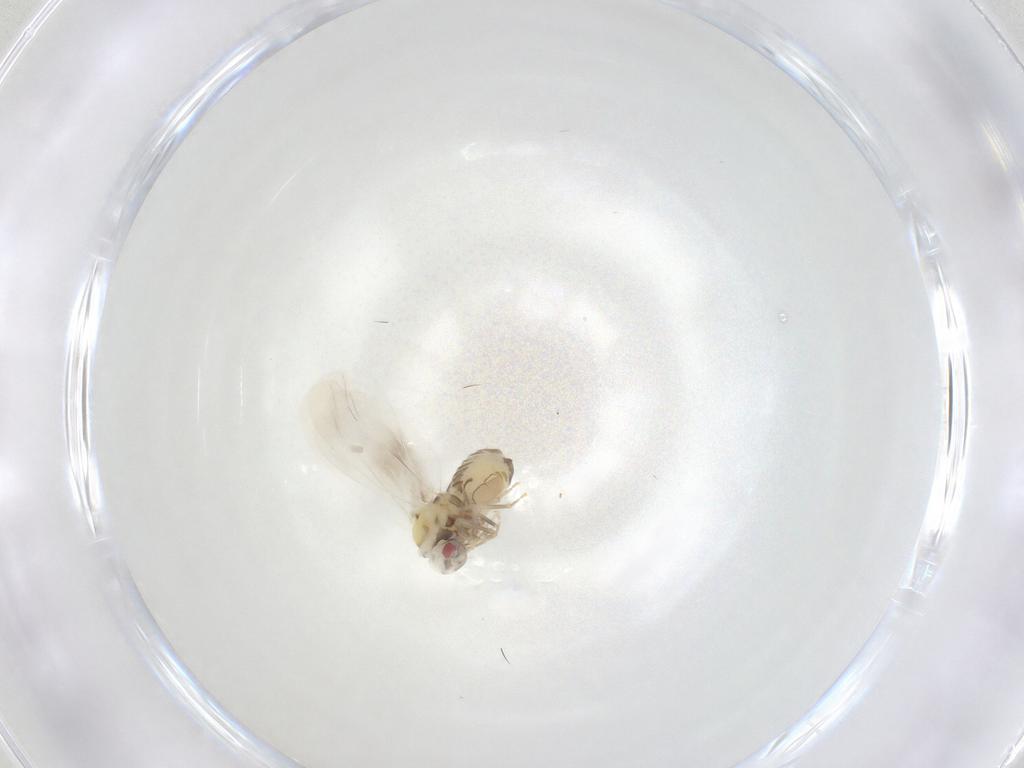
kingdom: Animalia
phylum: Arthropoda
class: Insecta
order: Hemiptera
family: Aleyrodidae
